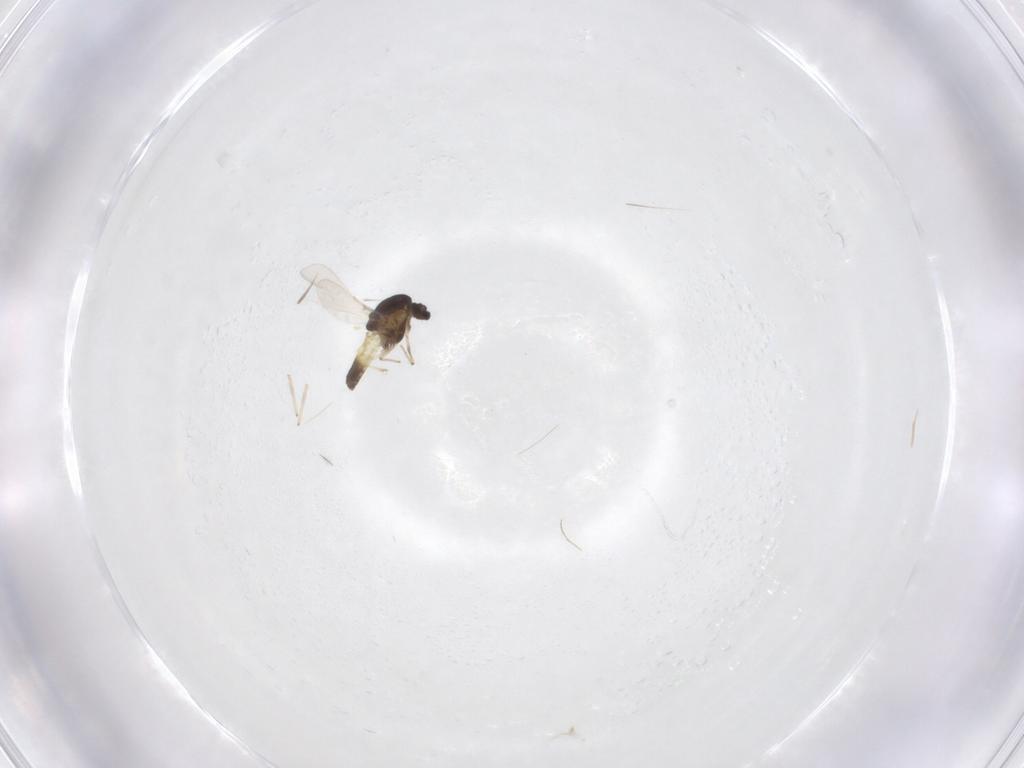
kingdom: Animalia
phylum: Arthropoda
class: Insecta
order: Diptera
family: Chironomidae
